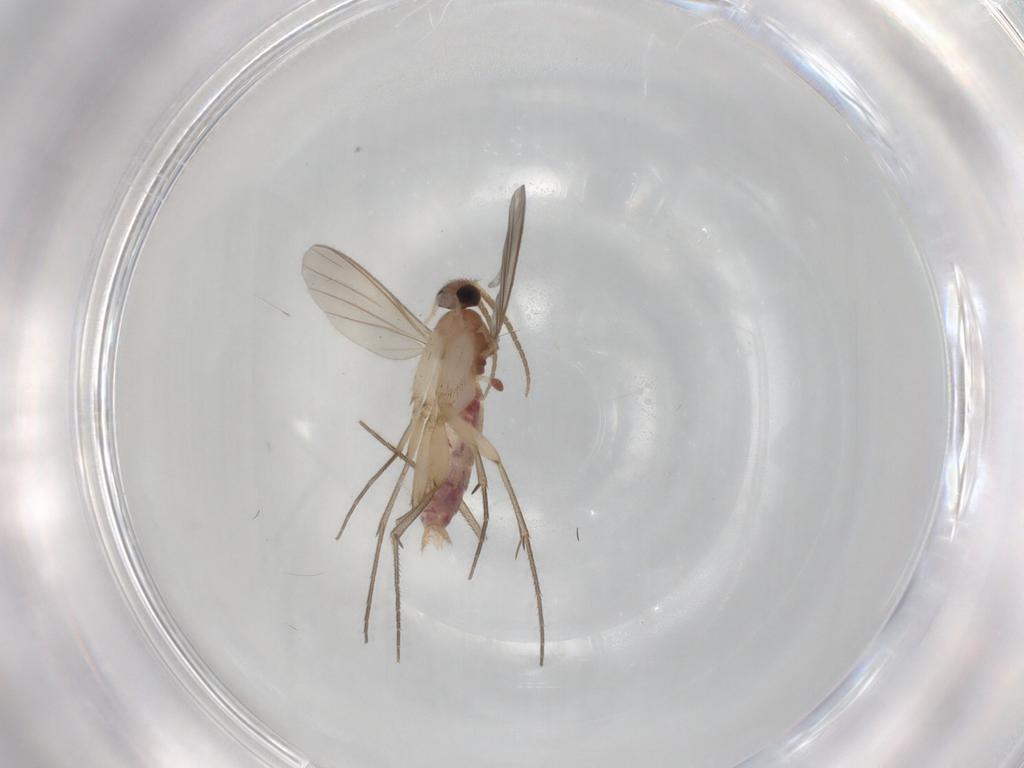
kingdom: Animalia
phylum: Arthropoda
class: Insecta
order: Diptera
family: Mycetophilidae
